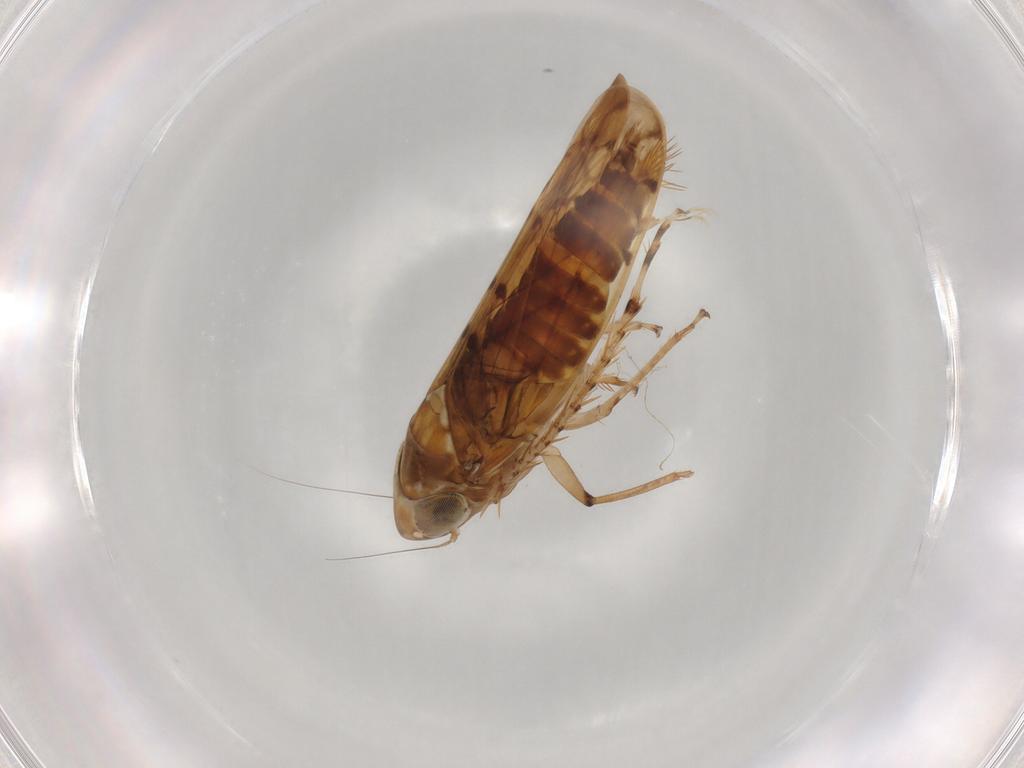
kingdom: Animalia
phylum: Arthropoda
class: Insecta
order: Hemiptera
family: Cicadellidae
